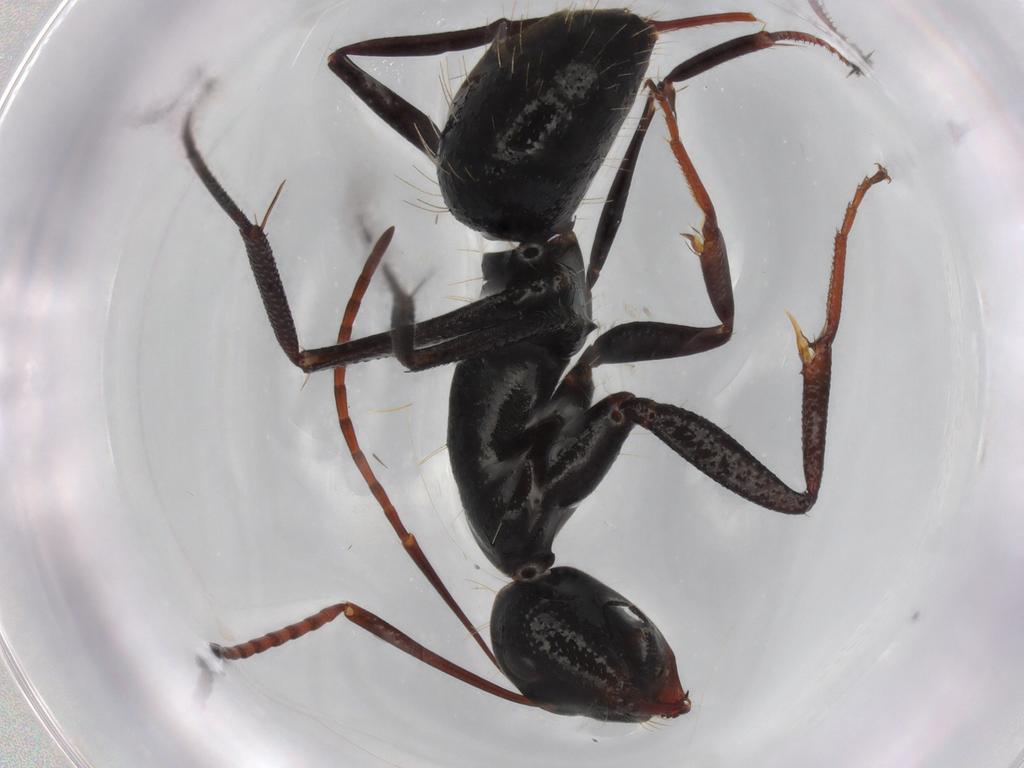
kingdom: Animalia
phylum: Arthropoda
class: Insecta
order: Hymenoptera
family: Formicidae
